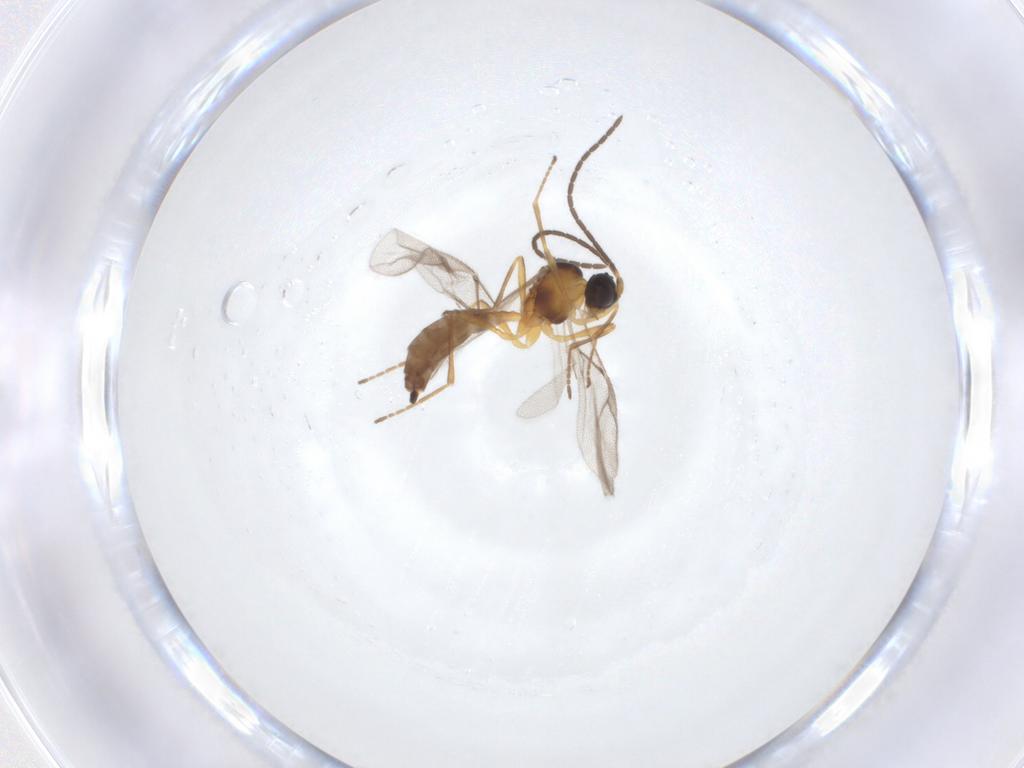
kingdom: Animalia
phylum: Arthropoda
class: Insecta
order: Hymenoptera
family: Braconidae
